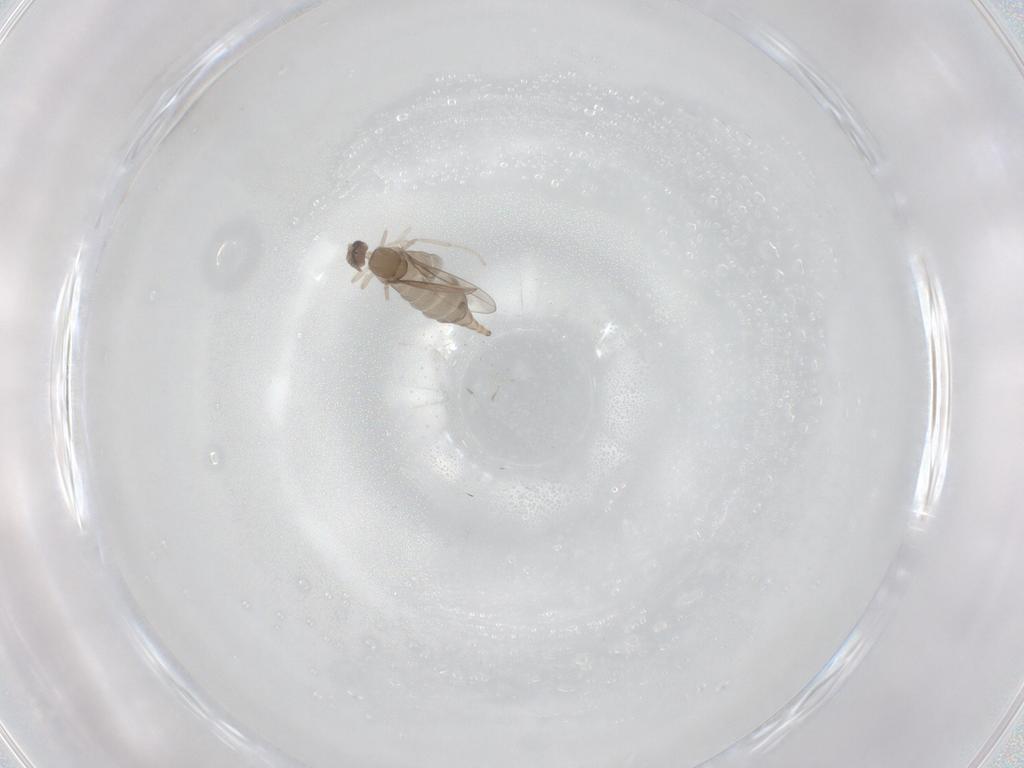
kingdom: Animalia
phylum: Arthropoda
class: Insecta
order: Diptera
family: Cecidomyiidae
